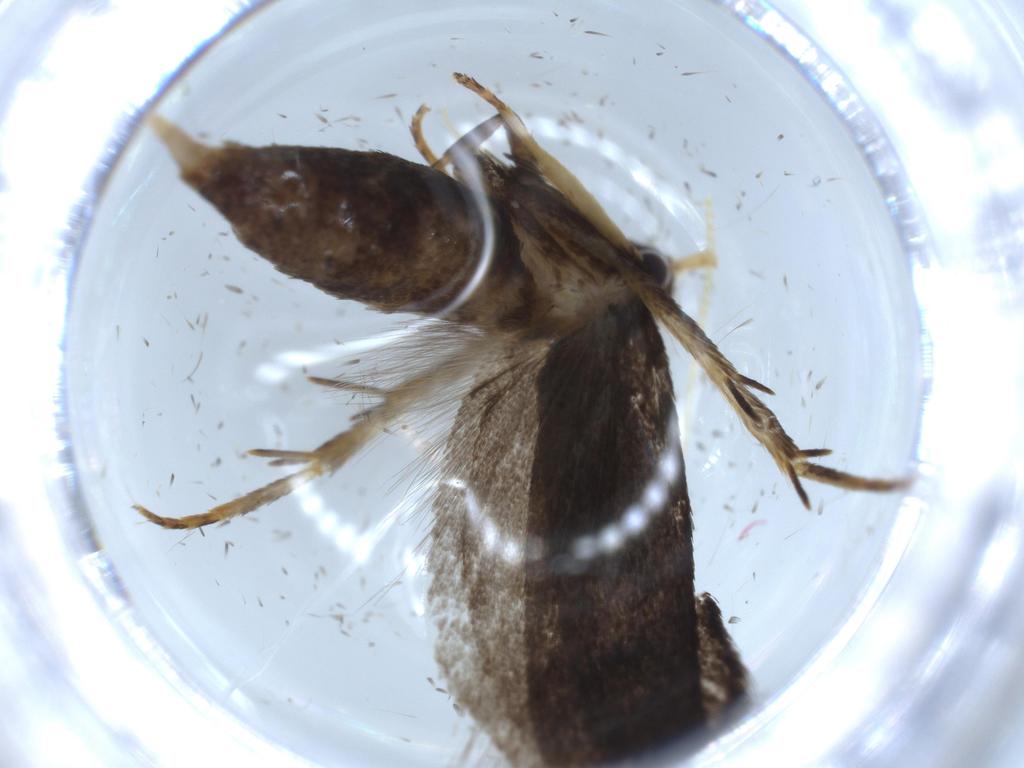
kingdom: Animalia
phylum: Arthropoda
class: Insecta
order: Lepidoptera
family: Lecithoceridae
